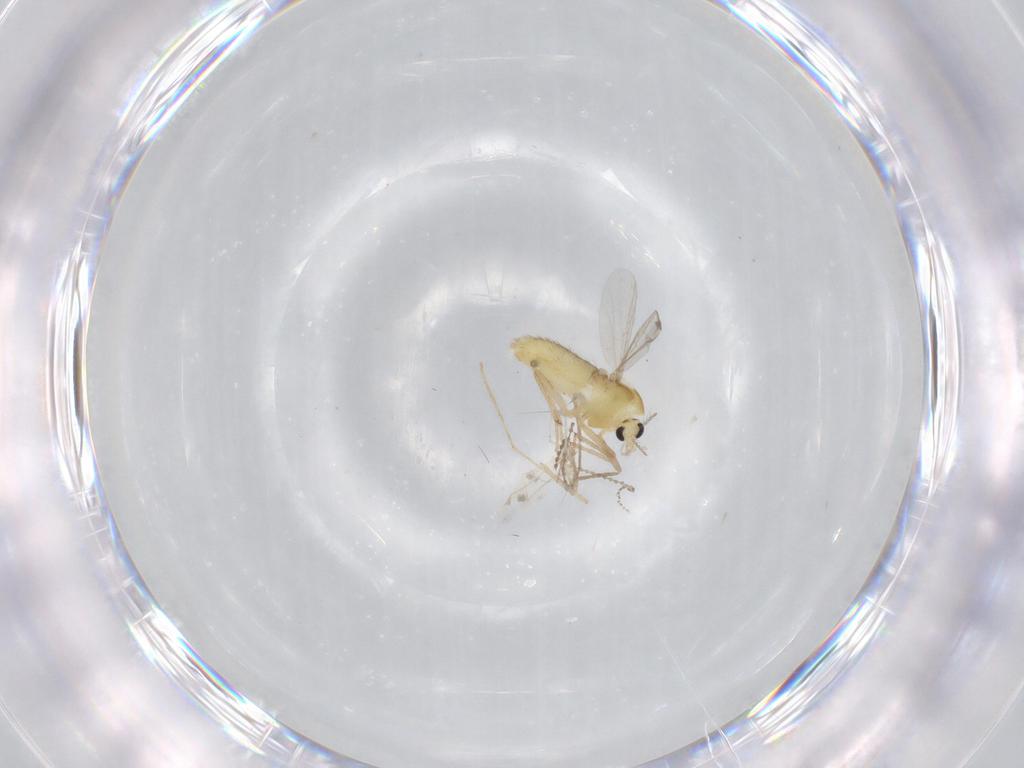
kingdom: Animalia
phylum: Arthropoda
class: Insecta
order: Diptera
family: Chironomidae
